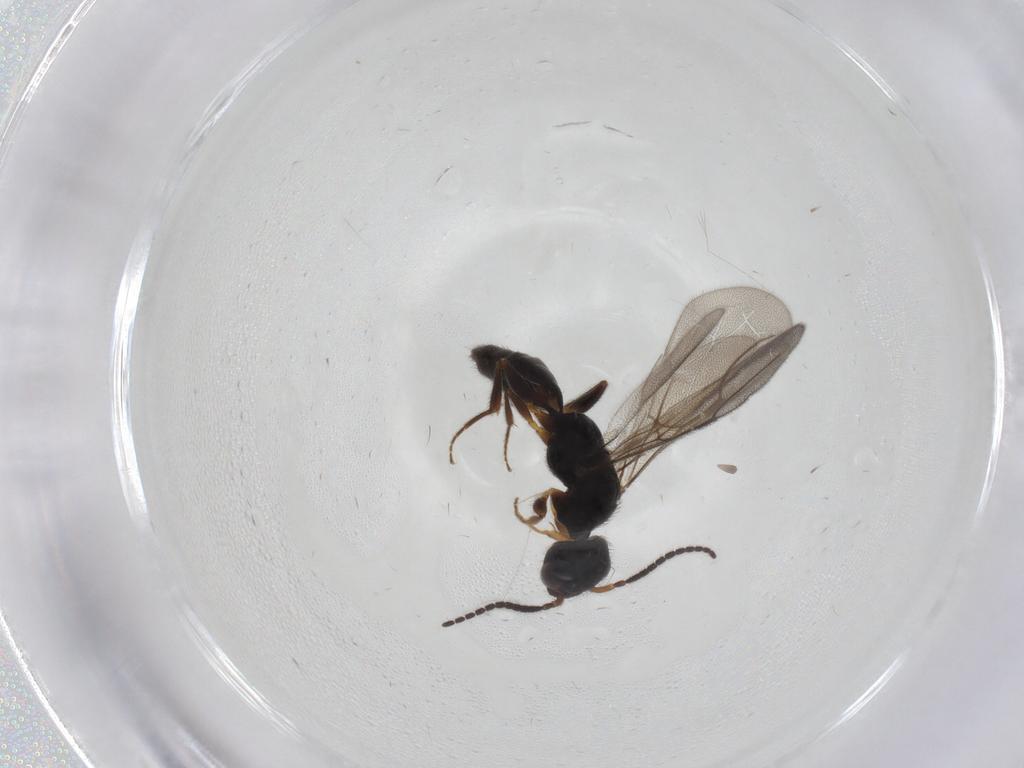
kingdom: Animalia
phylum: Arthropoda
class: Insecta
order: Hymenoptera
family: Bethylidae
